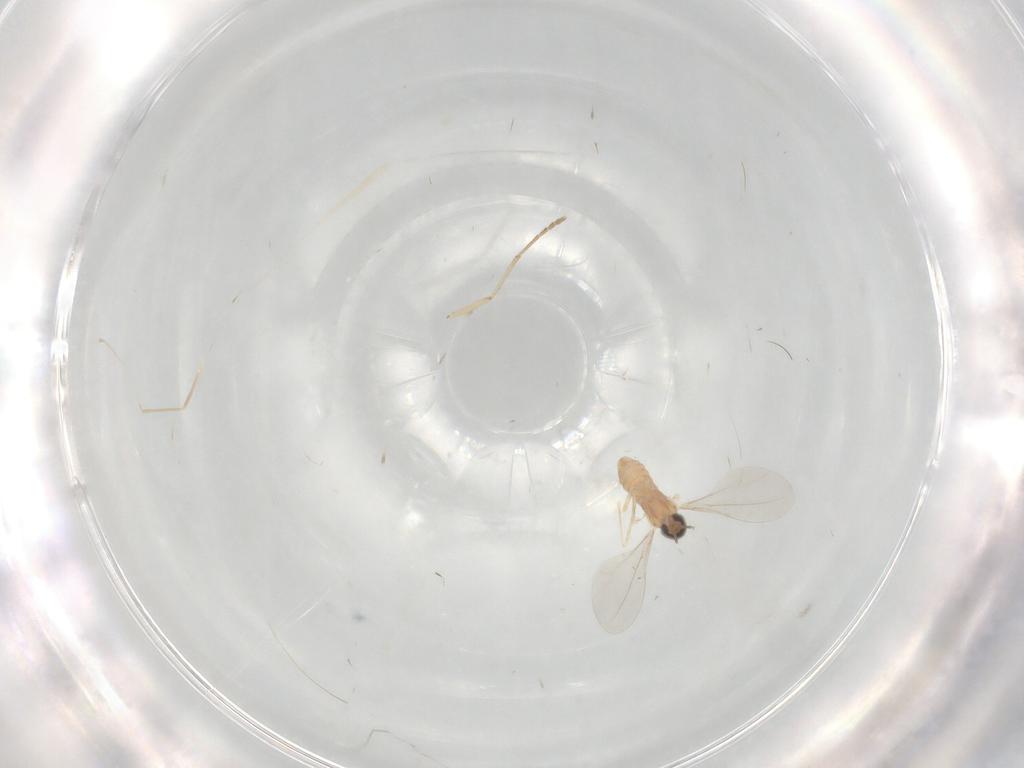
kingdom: Animalia
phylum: Arthropoda
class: Insecta
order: Diptera
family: Cecidomyiidae
